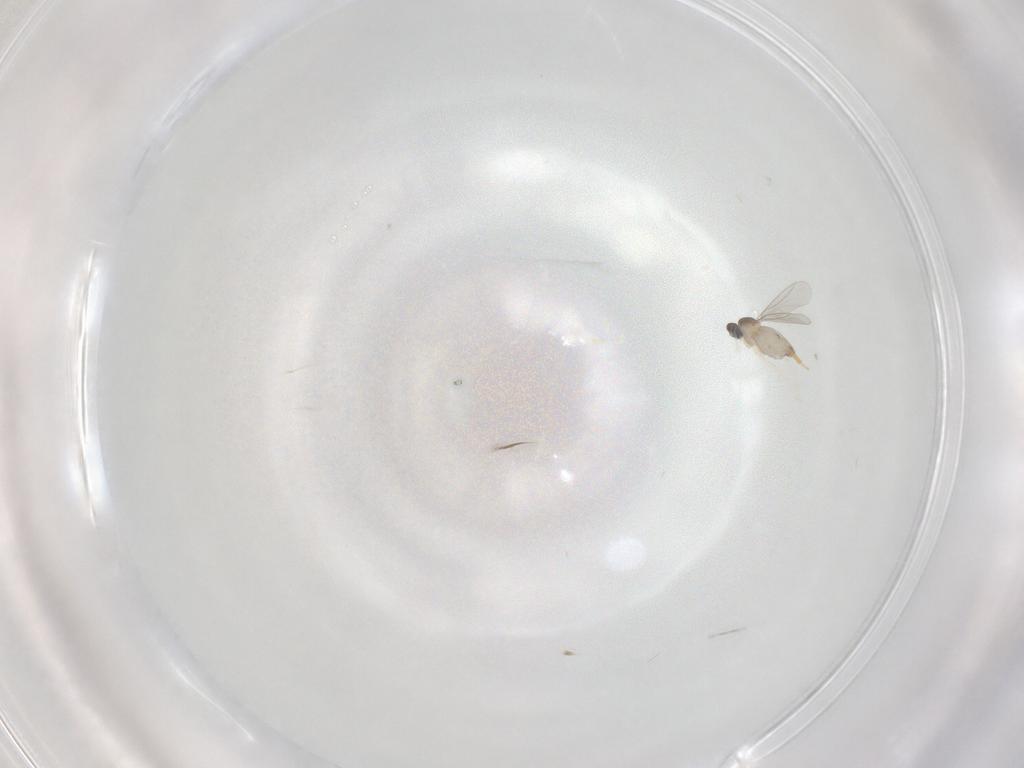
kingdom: Animalia
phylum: Arthropoda
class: Insecta
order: Diptera
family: Cecidomyiidae
